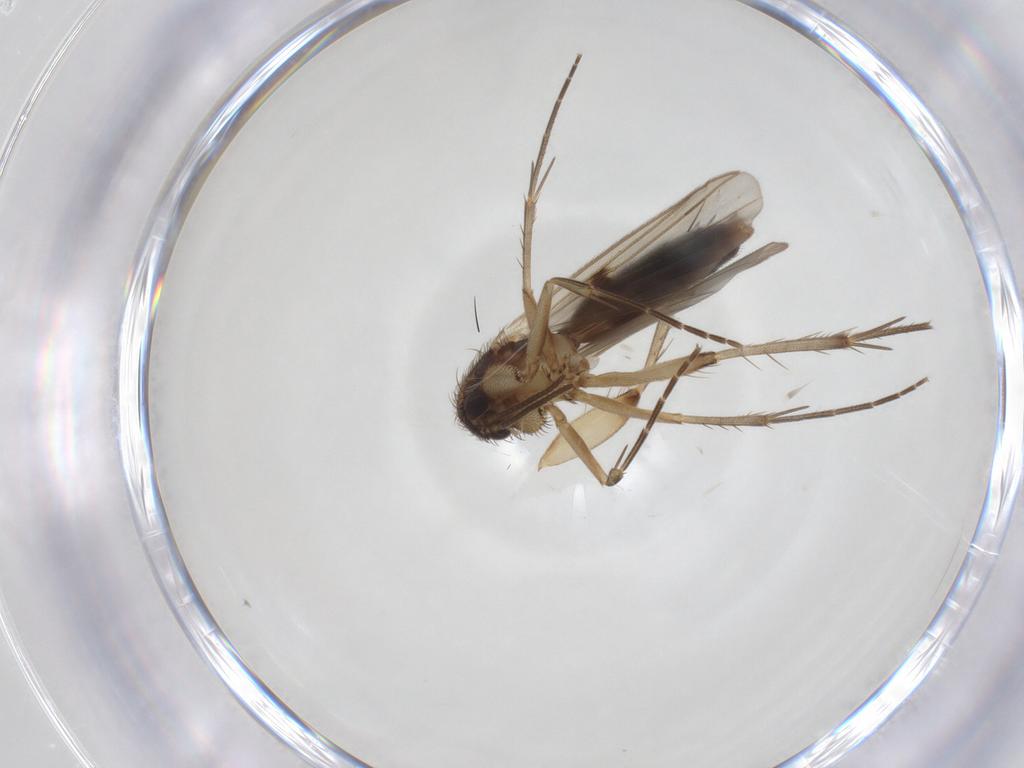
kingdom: Animalia
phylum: Arthropoda
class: Insecta
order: Diptera
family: Mycetophilidae
